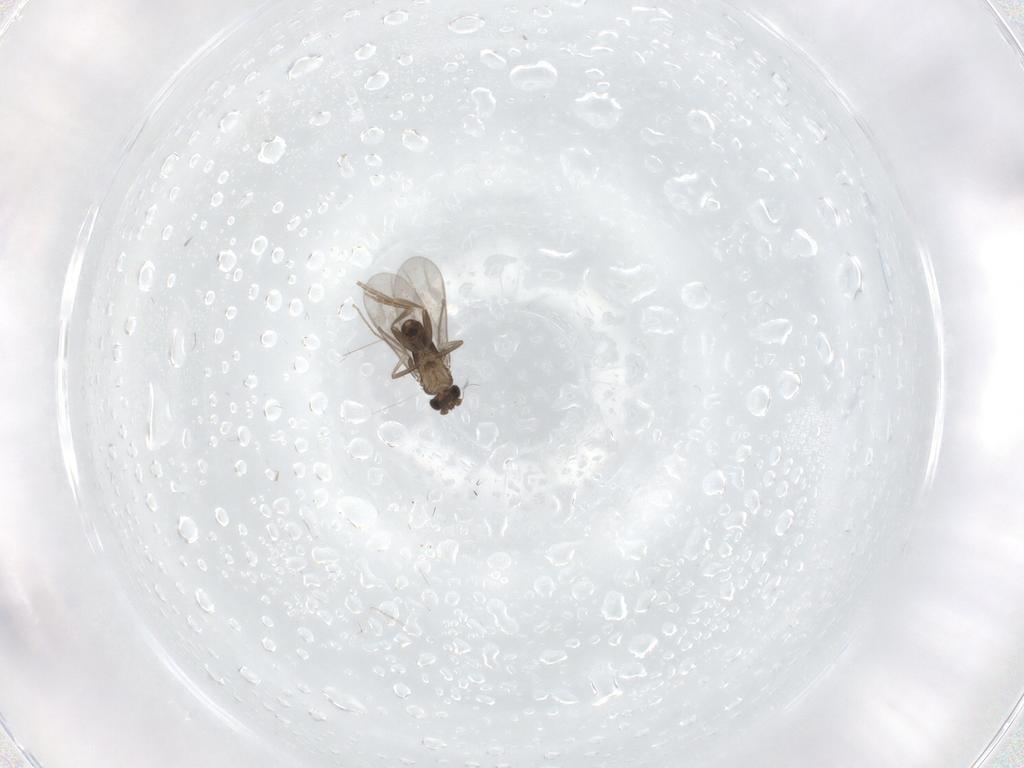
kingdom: Animalia
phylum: Arthropoda
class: Insecta
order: Diptera
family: Chironomidae
